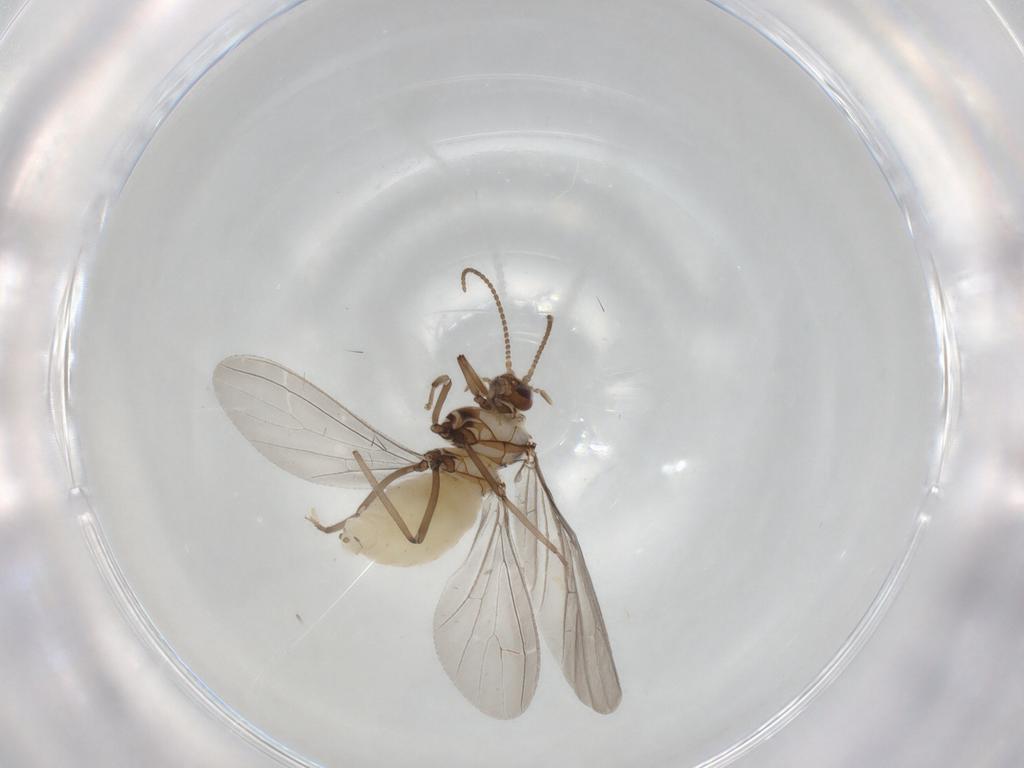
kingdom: Animalia
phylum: Arthropoda
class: Insecta
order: Neuroptera
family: Coniopterygidae
